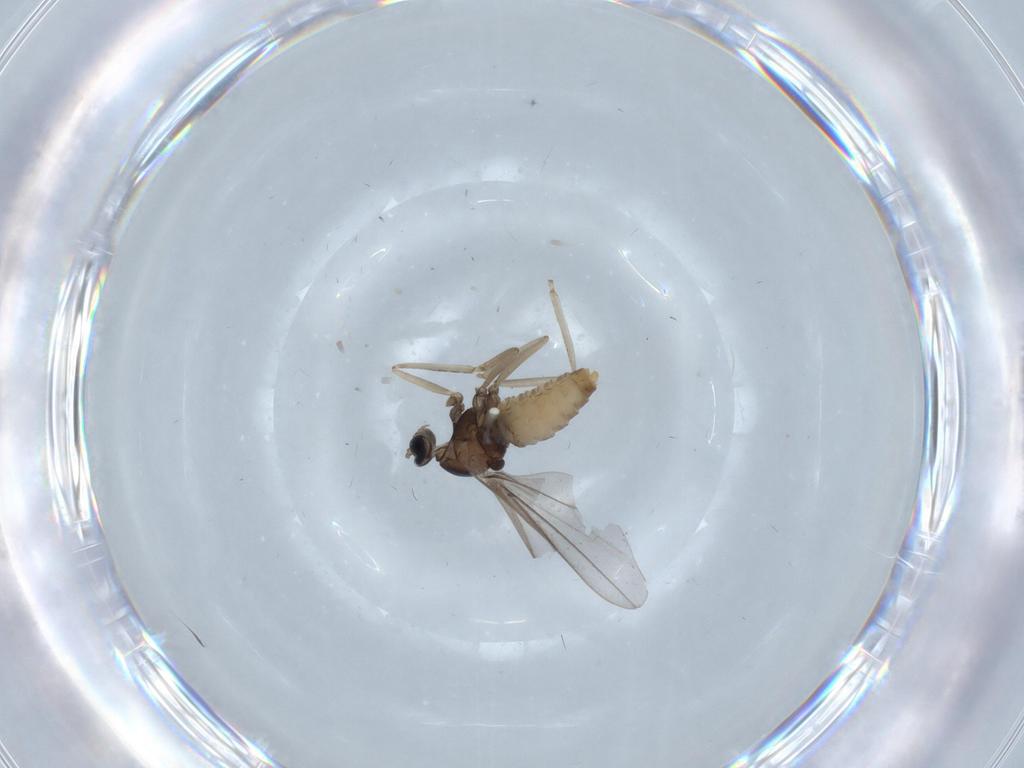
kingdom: Animalia
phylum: Arthropoda
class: Insecta
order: Diptera
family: Cecidomyiidae
